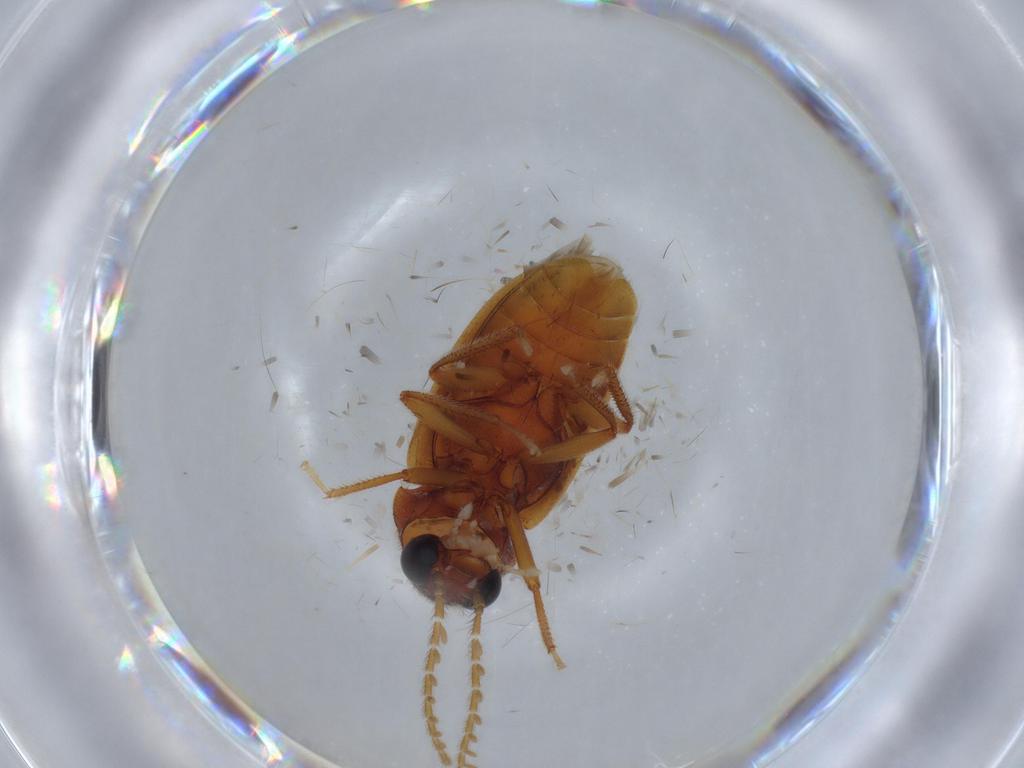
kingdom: Animalia
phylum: Arthropoda
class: Insecta
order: Coleoptera
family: Ptilodactylidae
